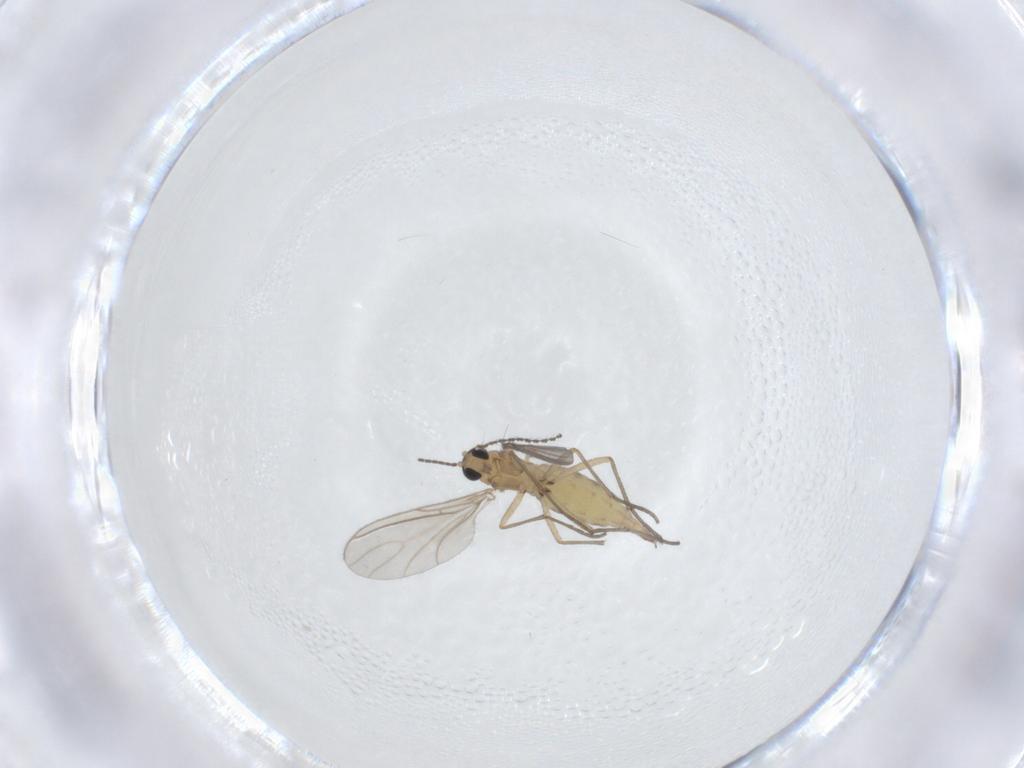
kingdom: Animalia
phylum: Arthropoda
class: Insecta
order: Diptera
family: Sciaridae
